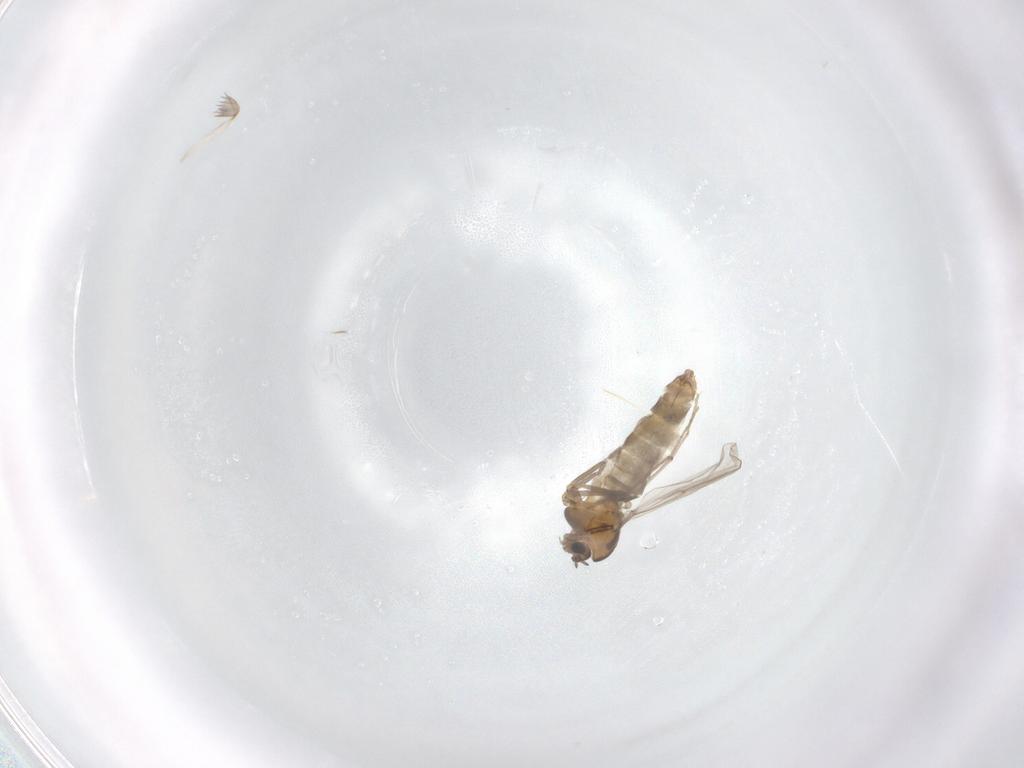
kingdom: Animalia
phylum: Arthropoda
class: Insecta
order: Diptera
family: Chironomidae
